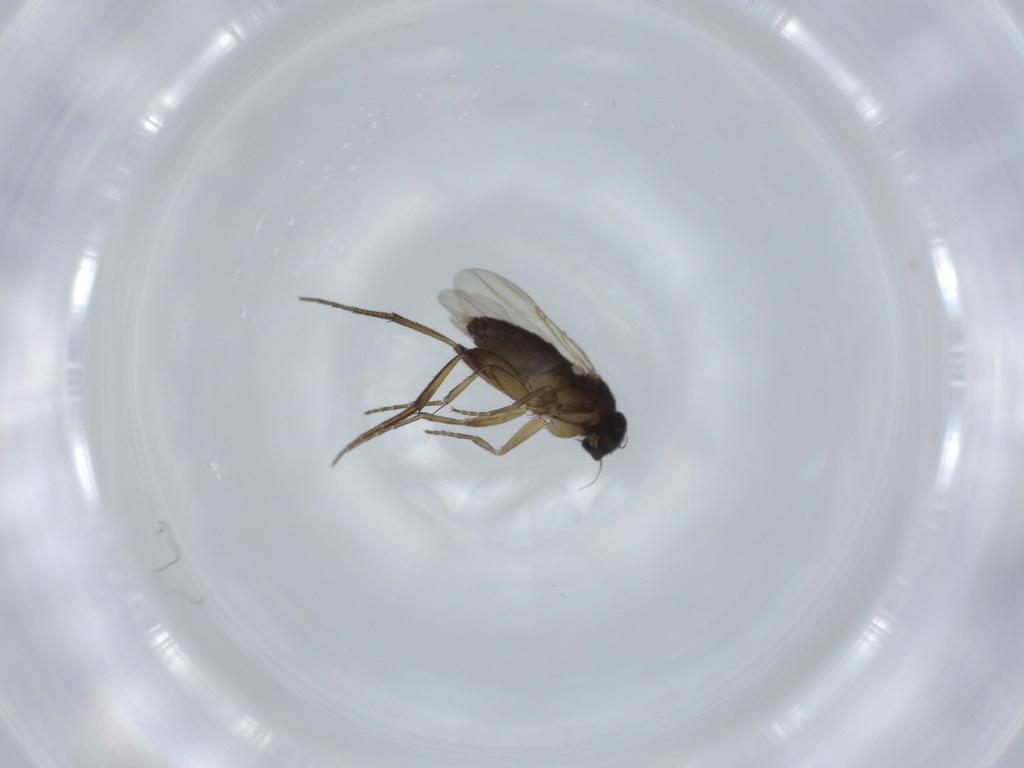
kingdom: Animalia
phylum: Arthropoda
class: Insecta
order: Diptera
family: Phoridae
